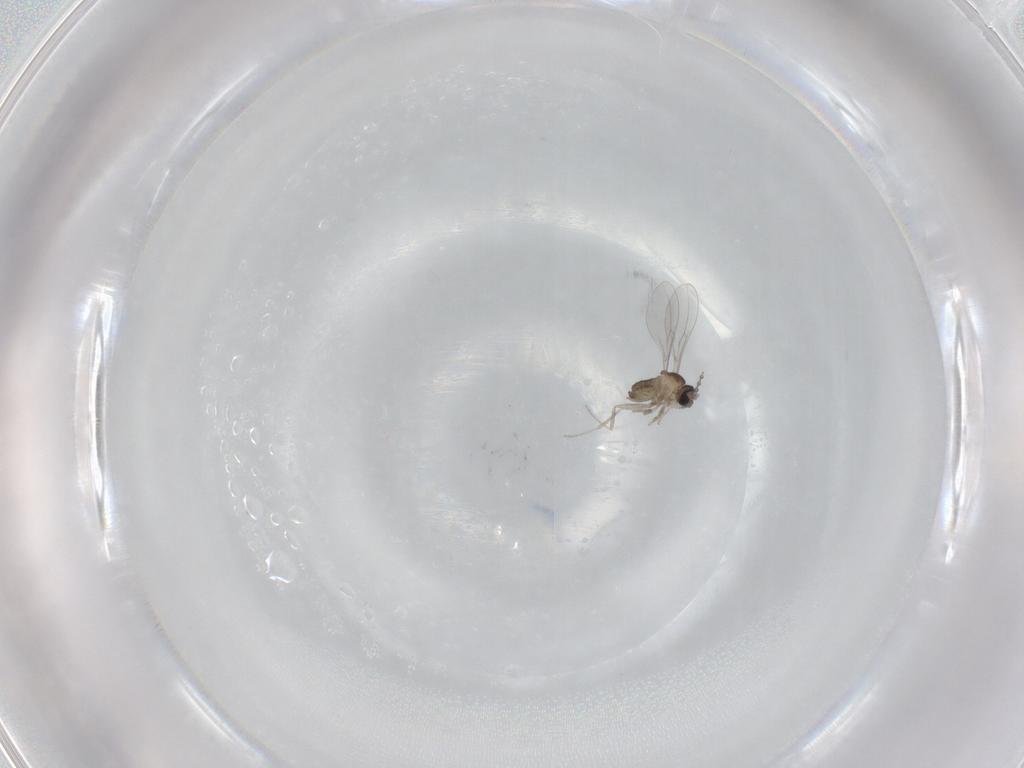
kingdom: Animalia
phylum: Arthropoda
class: Insecta
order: Diptera
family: Cecidomyiidae
